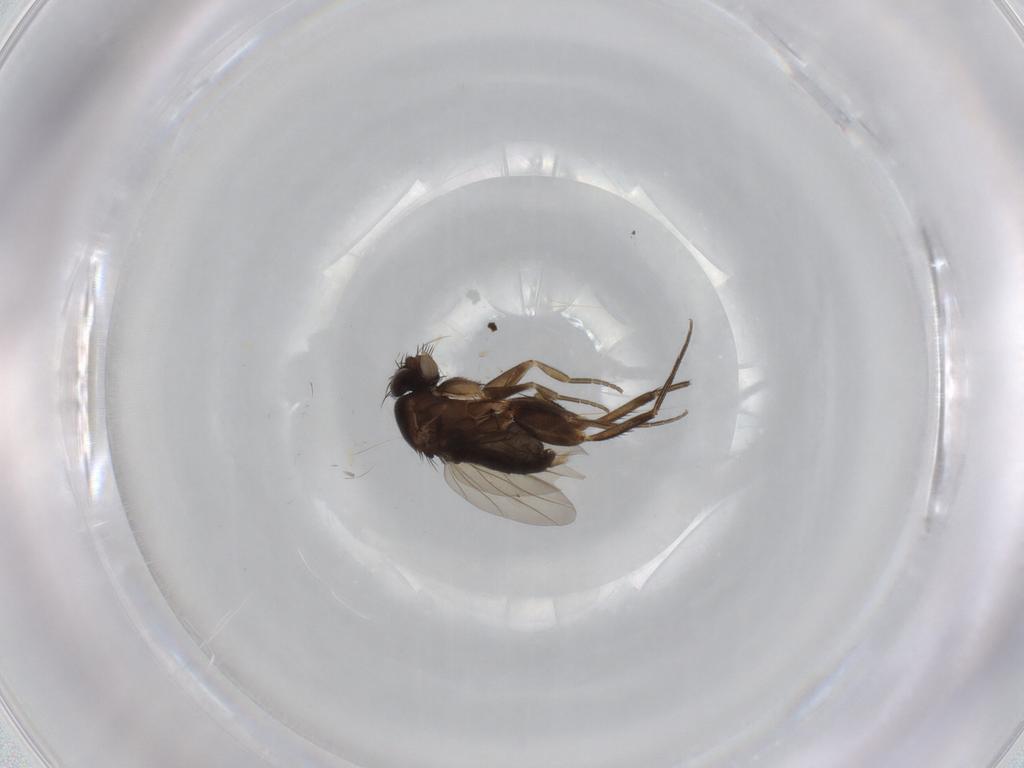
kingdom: Animalia
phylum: Arthropoda
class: Insecta
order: Diptera
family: Phoridae
